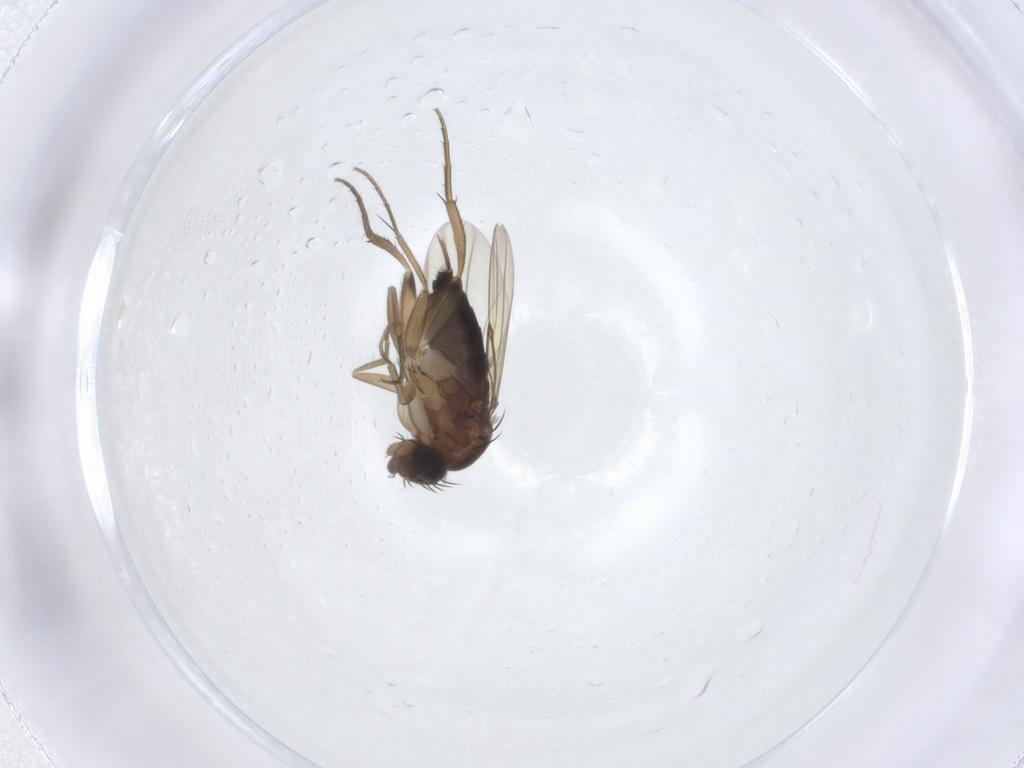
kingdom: Animalia
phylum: Arthropoda
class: Insecta
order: Diptera
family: Phoridae
